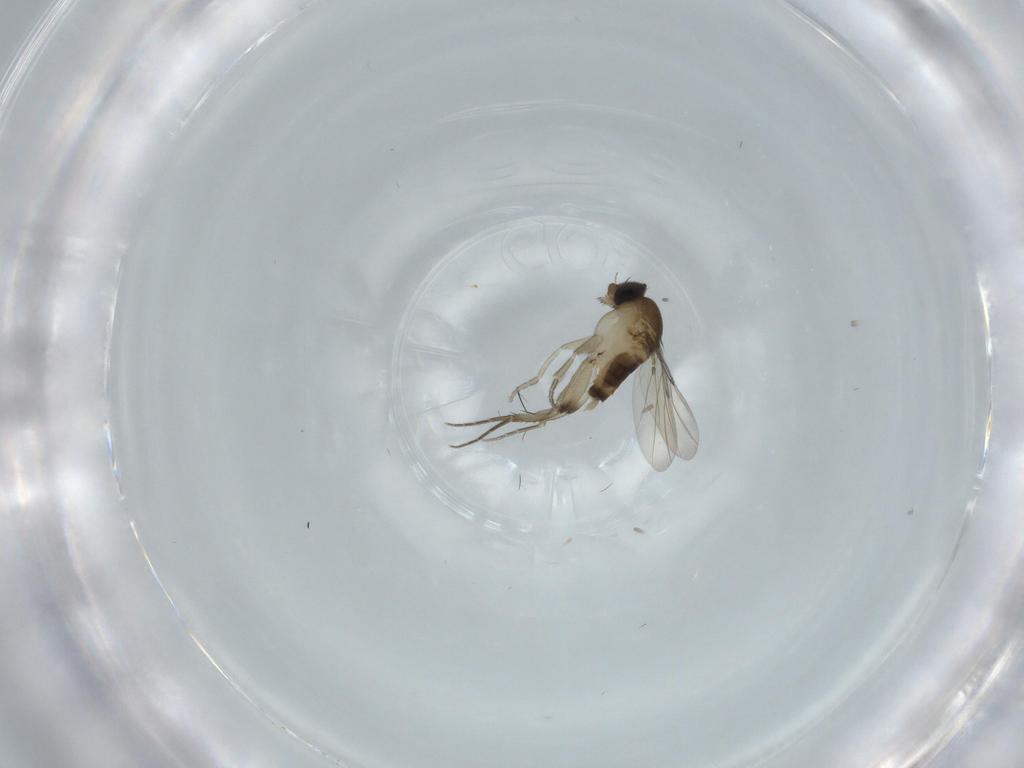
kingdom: Animalia
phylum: Arthropoda
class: Insecta
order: Diptera
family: Phoridae
